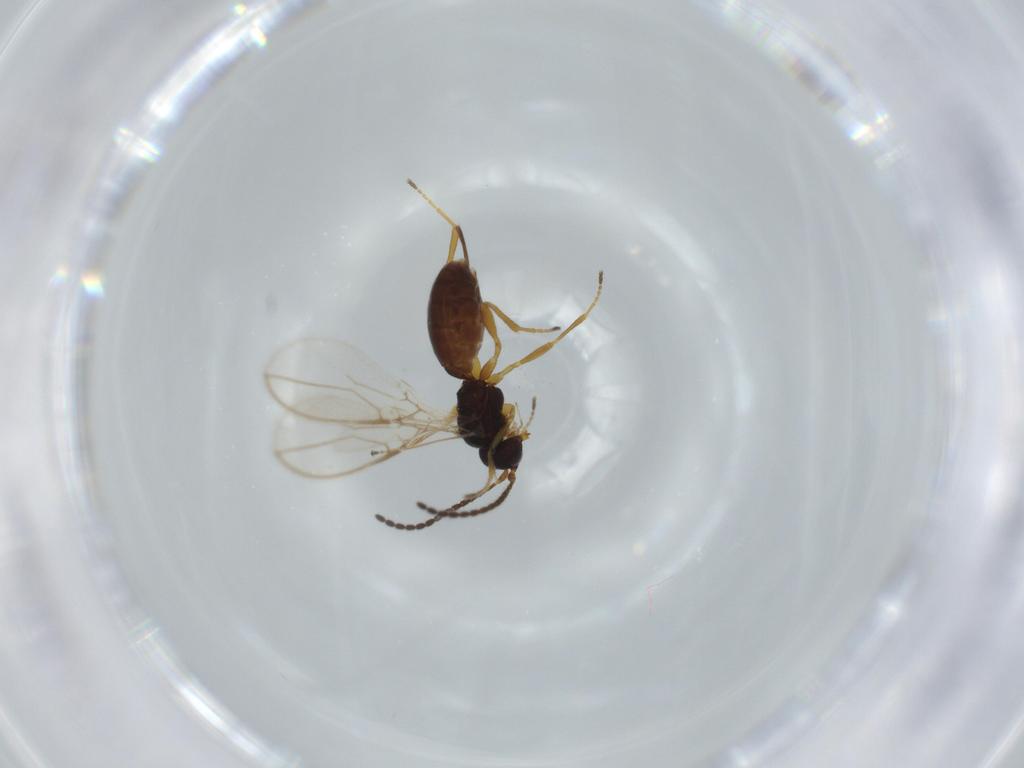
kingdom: Animalia
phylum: Arthropoda
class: Insecta
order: Hymenoptera
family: Braconidae
